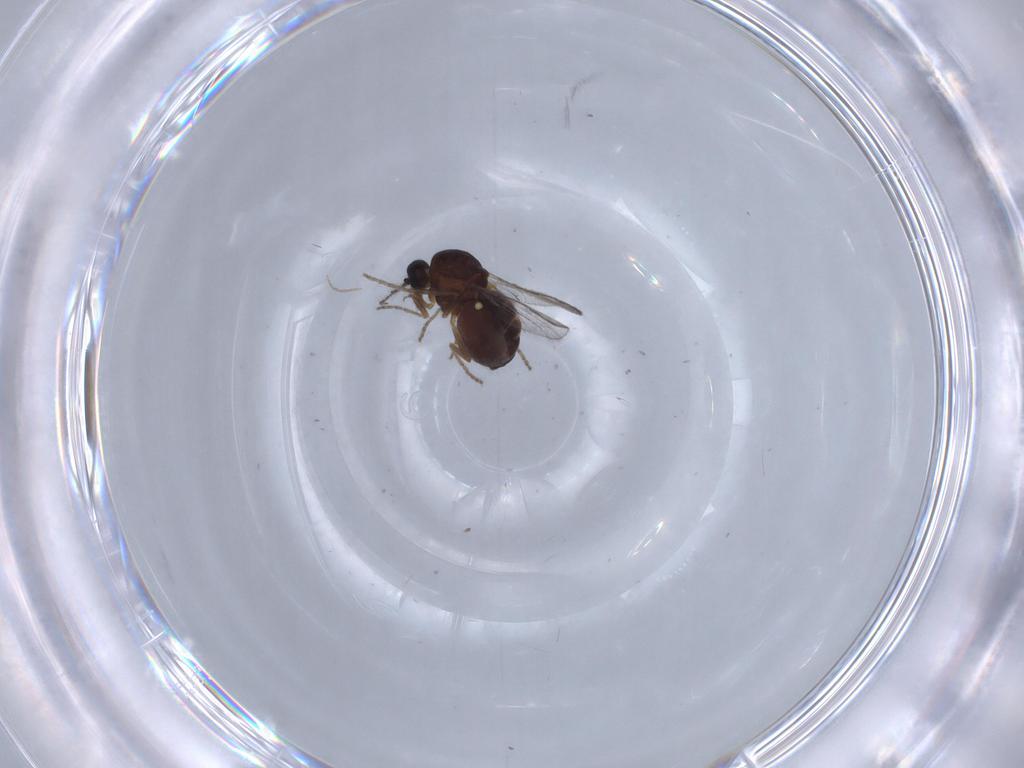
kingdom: Animalia
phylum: Arthropoda
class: Insecta
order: Diptera
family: Ceratopogonidae
